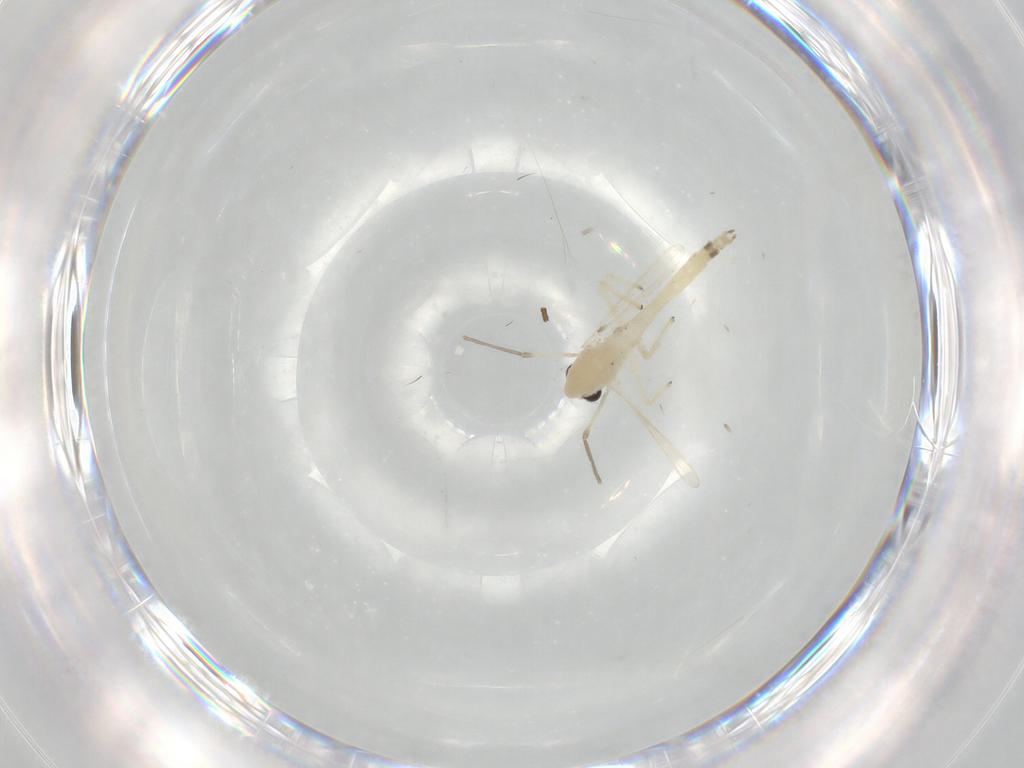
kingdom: Animalia
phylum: Arthropoda
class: Insecta
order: Diptera
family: Chironomidae
